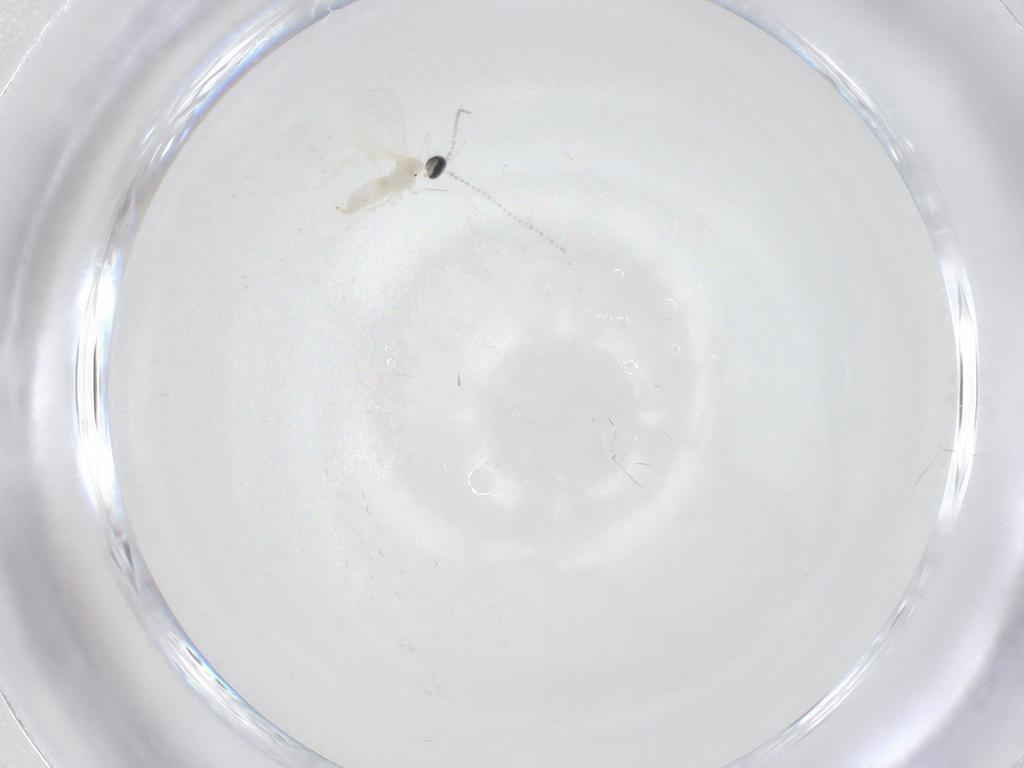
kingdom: Animalia
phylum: Arthropoda
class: Insecta
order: Diptera
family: Cecidomyiidae
